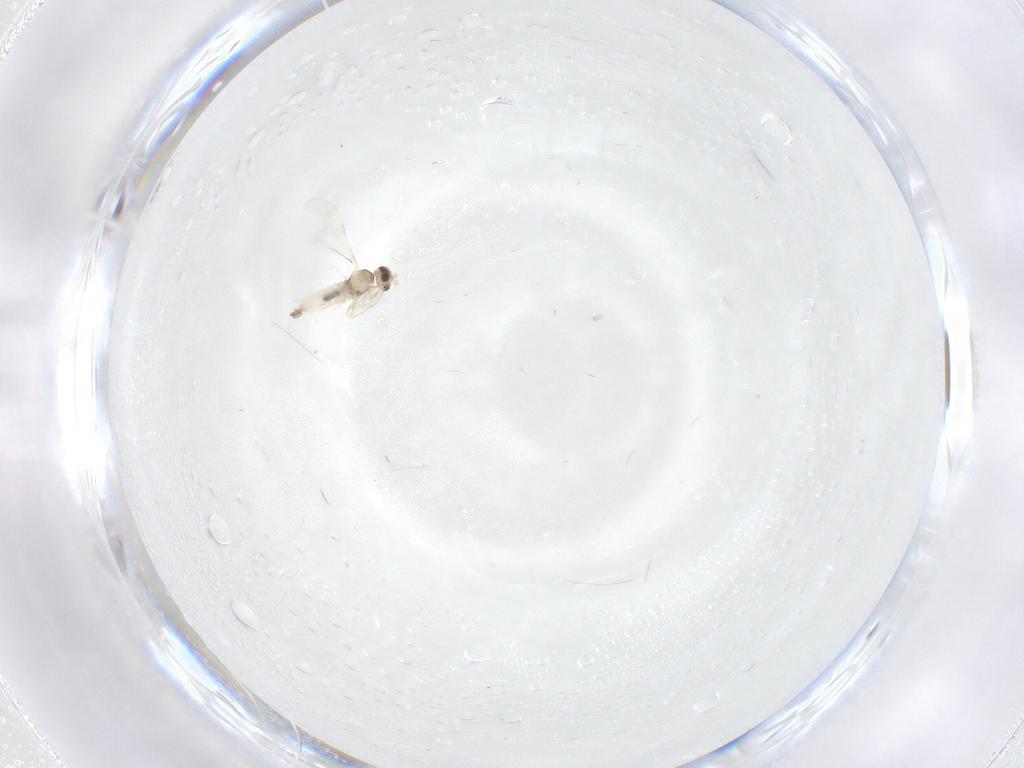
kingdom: Animalia
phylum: Arthropoda
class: Insecta
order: Diptera
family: Cecidomyiidae
